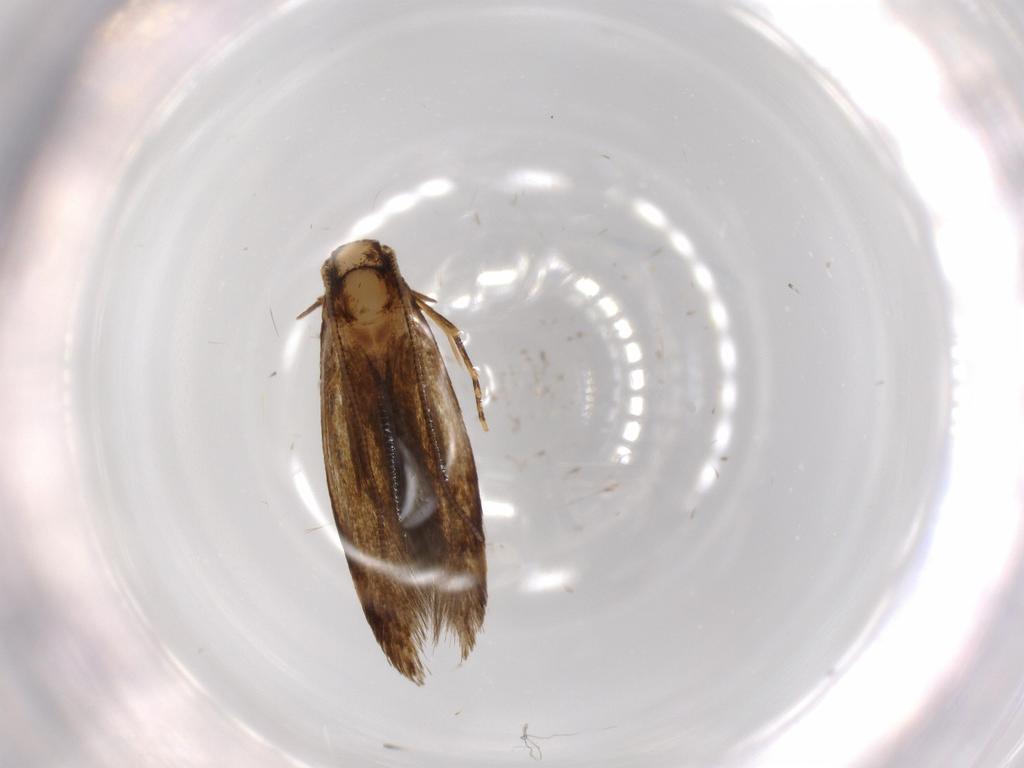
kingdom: Animalia
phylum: Arthropoda
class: Insecta
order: Lepidoptera
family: Tineidae
